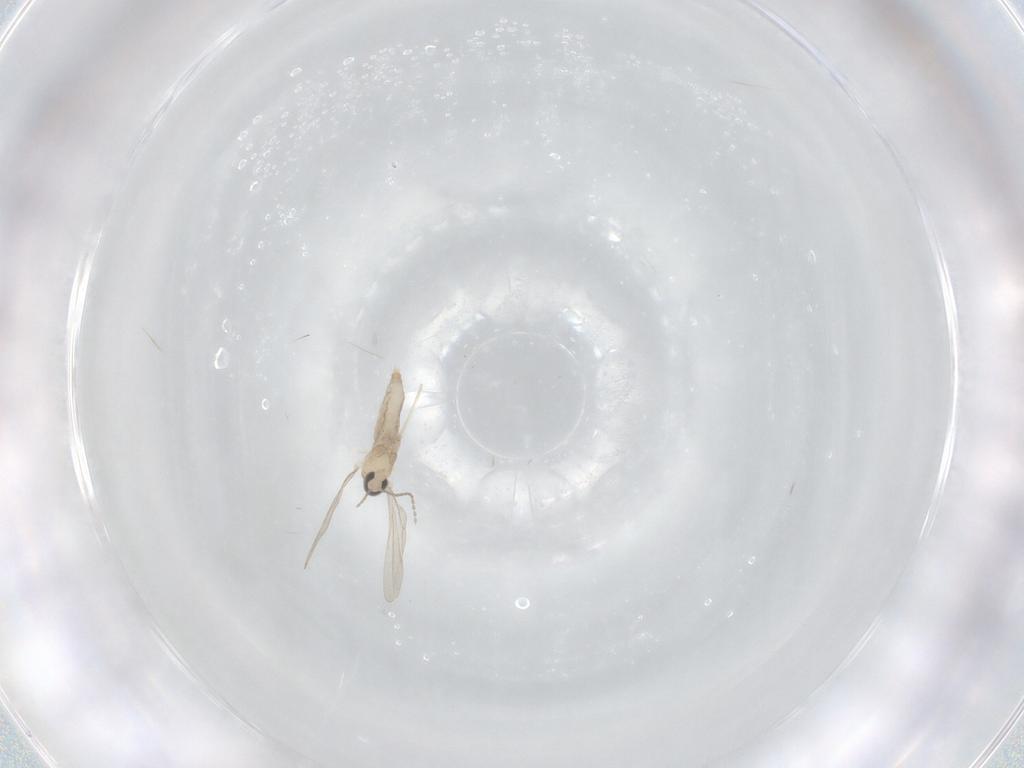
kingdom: Animalia
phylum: Arthropoda
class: Insecta
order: Diptera
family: Cecidomyiidae
